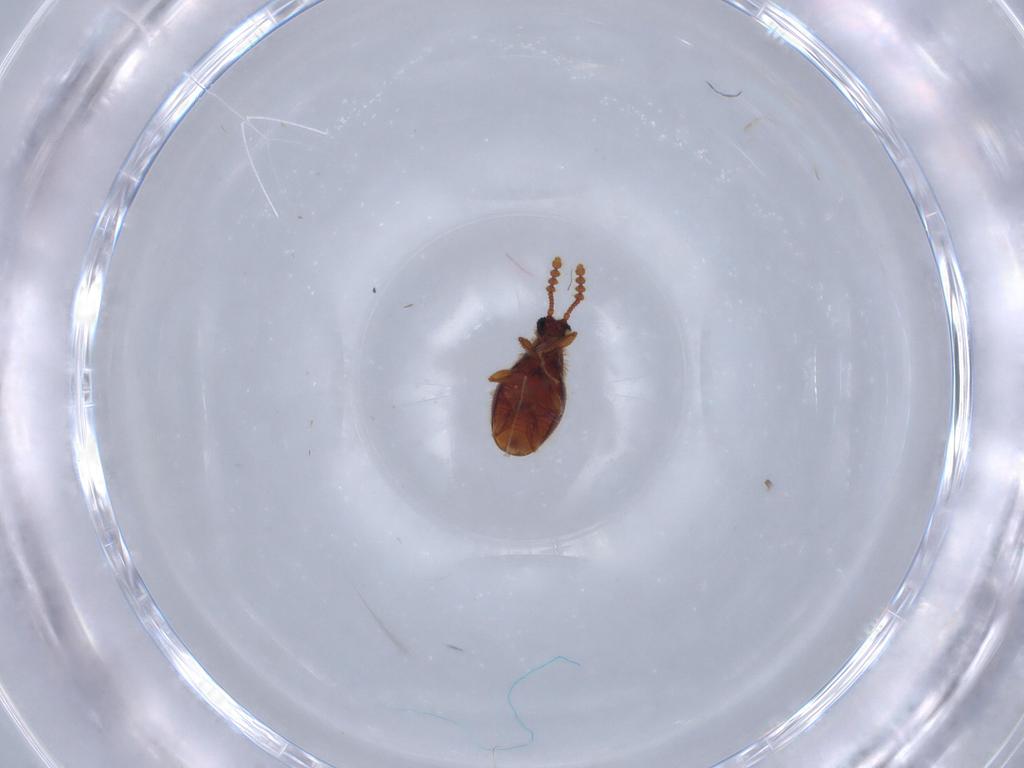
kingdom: Animalia
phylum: Arthropoda
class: Insecta
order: Coleoptera
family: Staphylinidae
